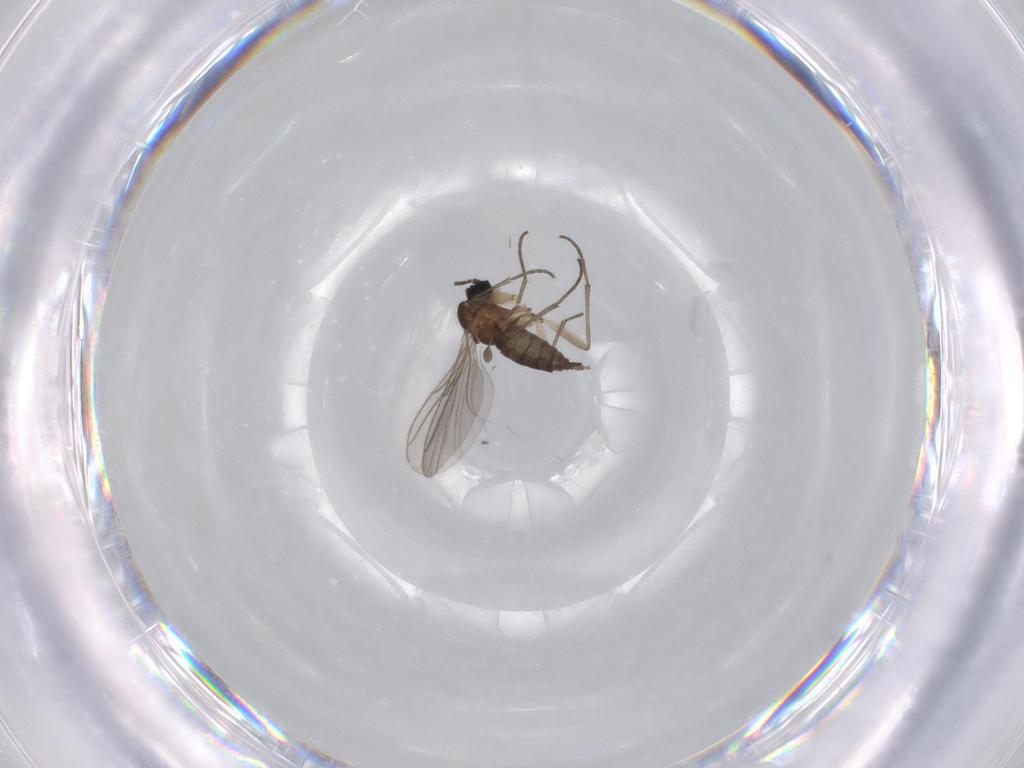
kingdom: Animalia
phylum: Arthropoda
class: Insecta
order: Diptera
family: Sciaridae
